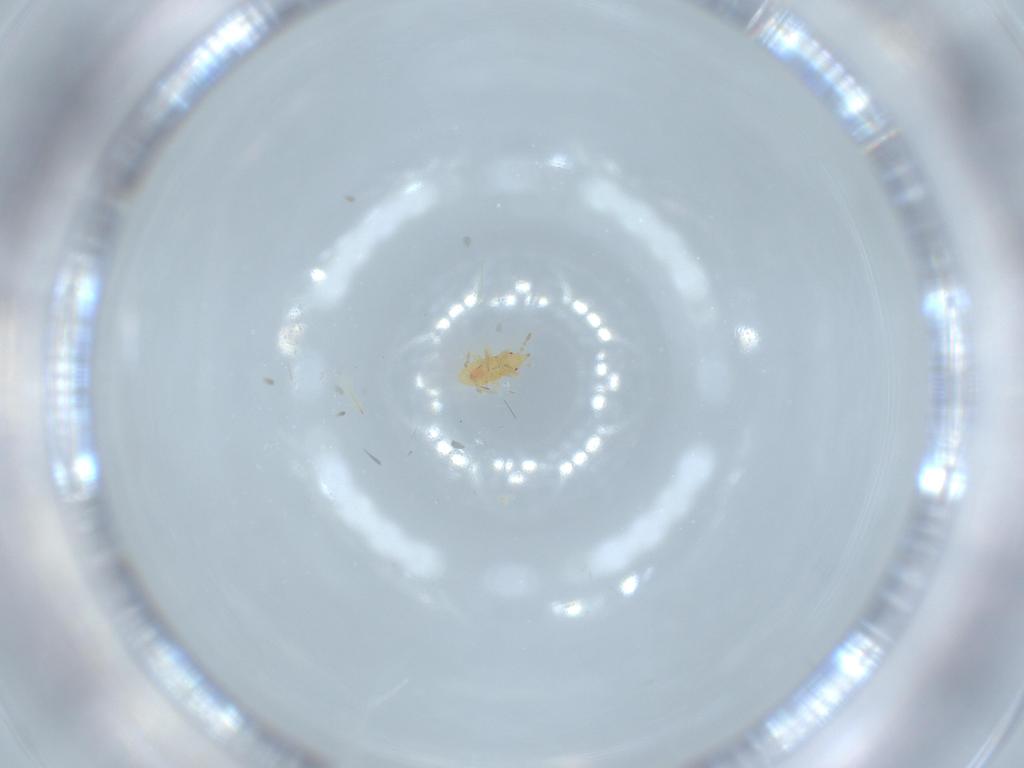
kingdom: Animalia
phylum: Arthropoda
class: Insecta
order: Hemiptera
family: Anthocoridae
